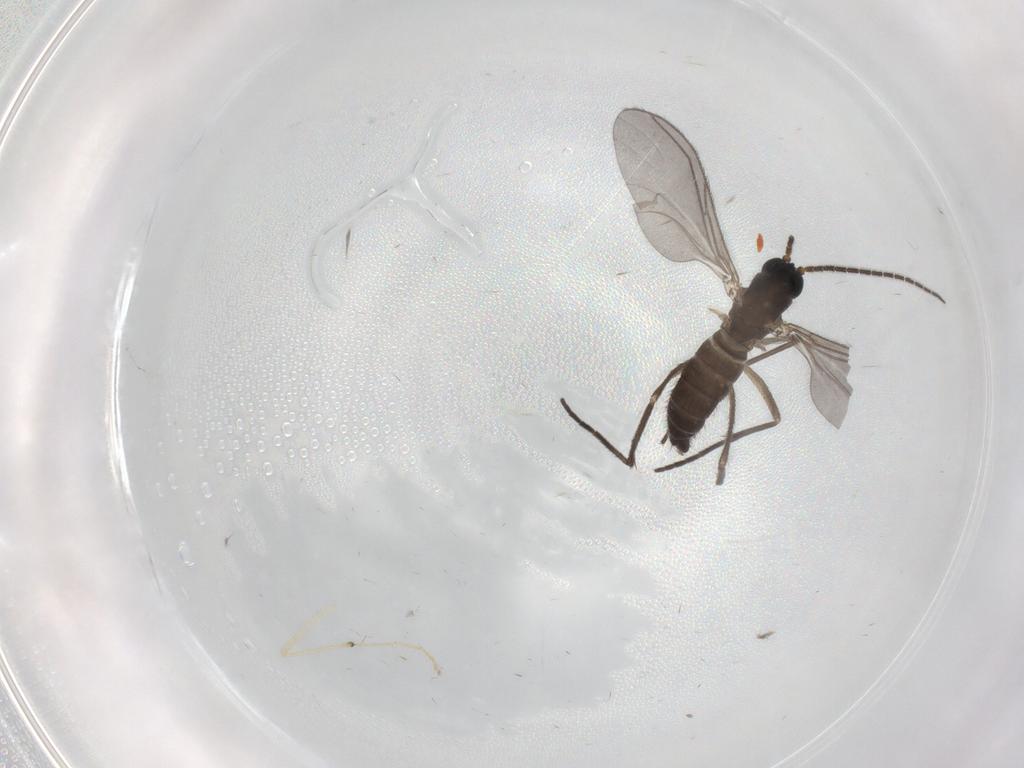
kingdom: Animalia
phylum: Arthropoda
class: Insecta
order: Diptera
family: Sciaridae
